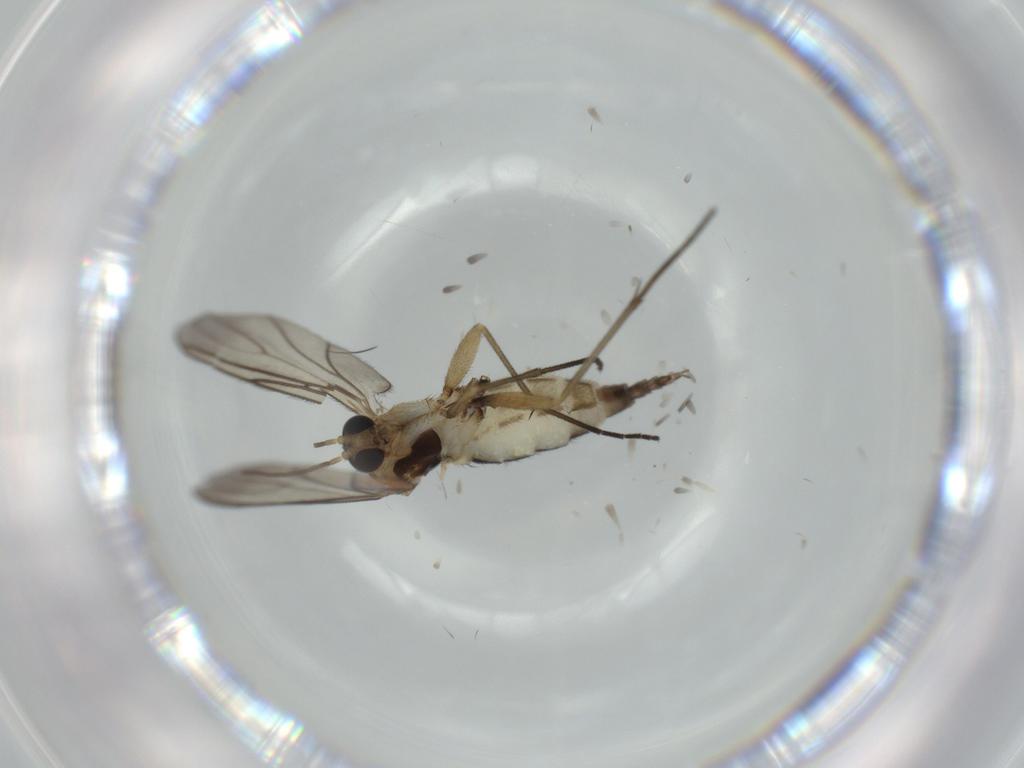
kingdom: Animalia
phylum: Arthropoda
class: Insecta
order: Diptera
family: Sciaridae
